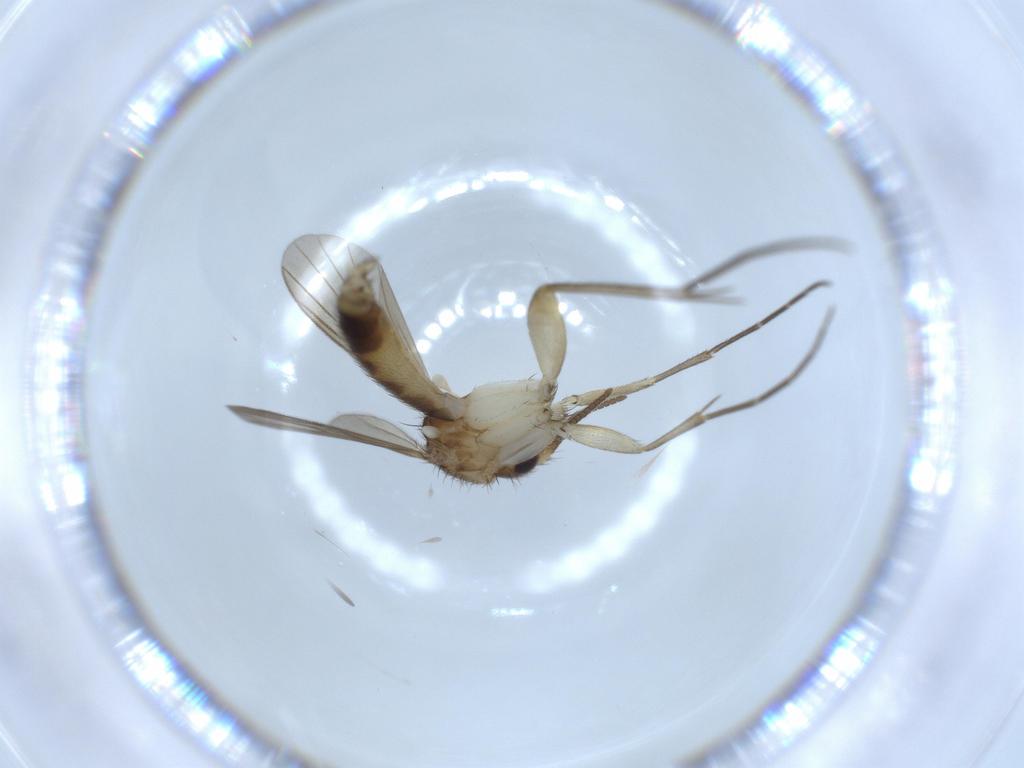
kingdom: Animalia
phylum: Arthropoda
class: Insecta
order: Diptera
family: Mycetophilidae
